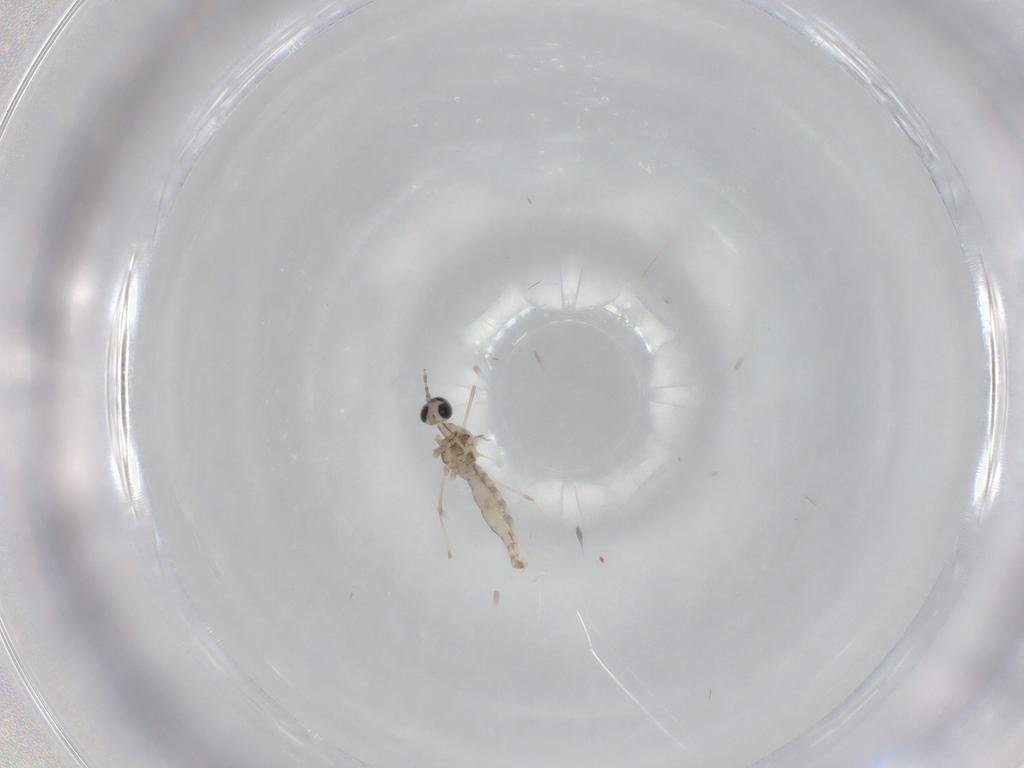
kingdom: Animalia
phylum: Arthropoda
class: Insecta
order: Diptera
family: Cecidomyiidae
